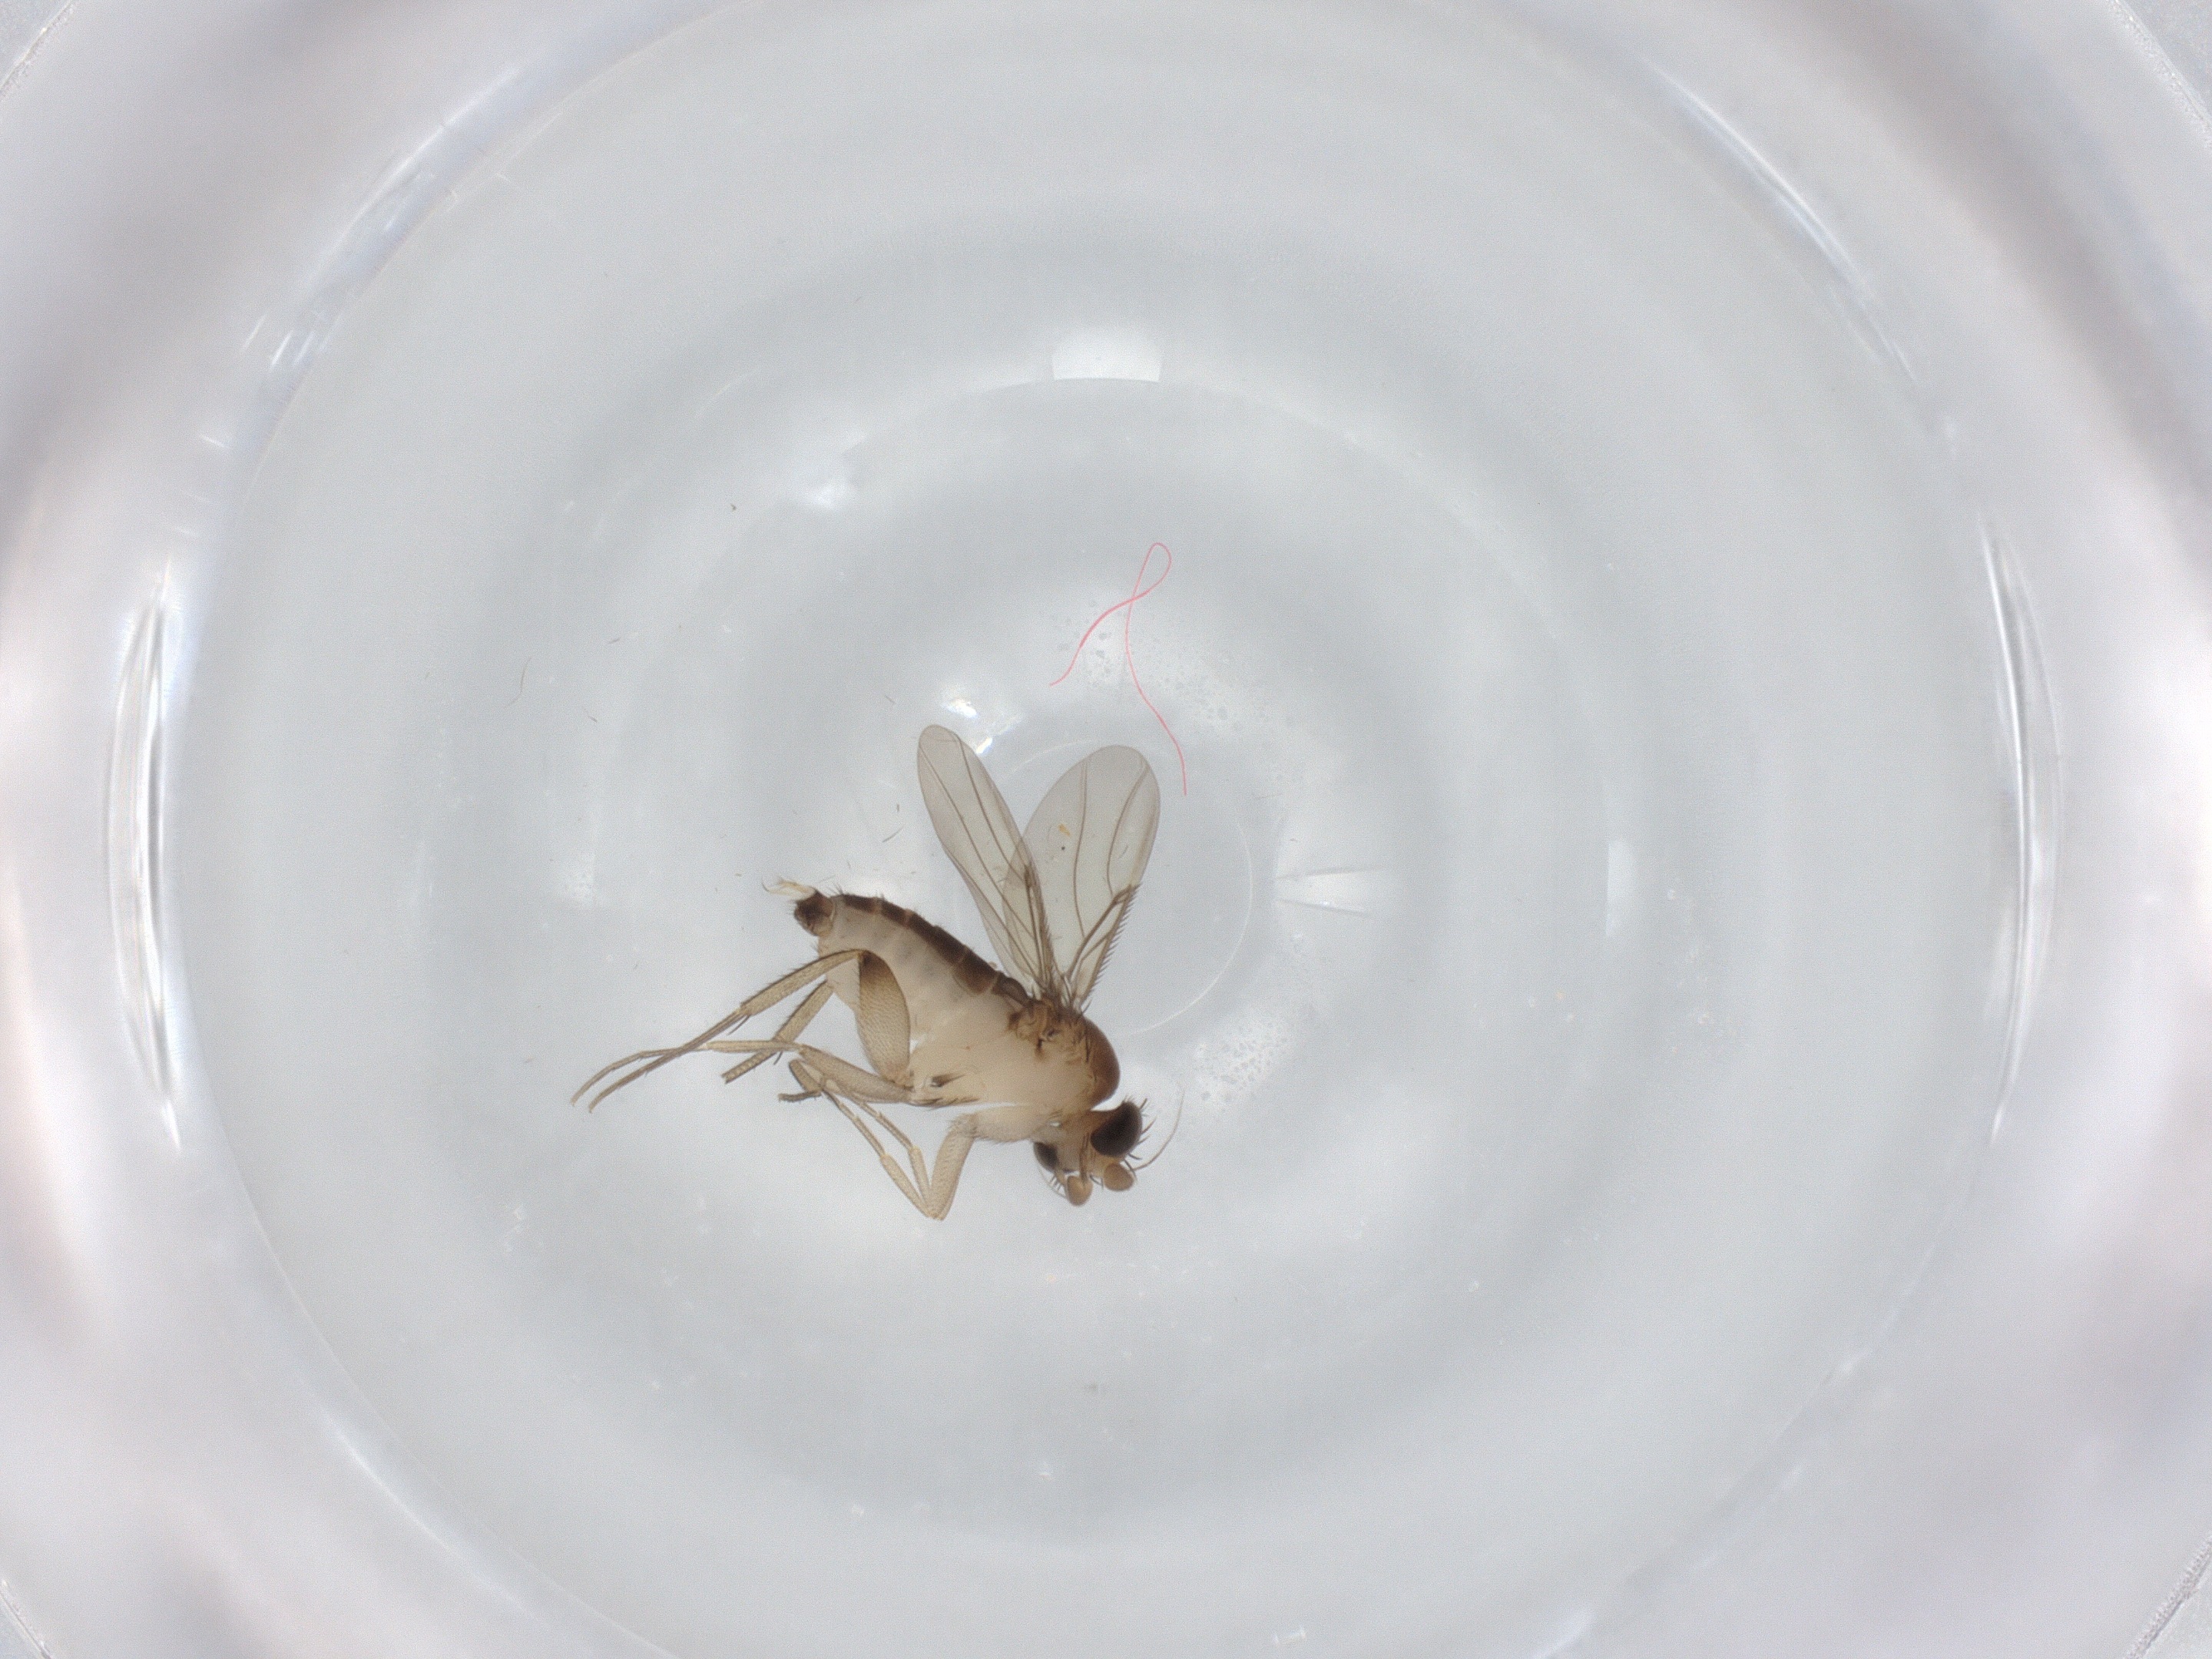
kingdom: Animalia
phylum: Arthropoda
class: Insecta
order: Diptera
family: Phoridae
